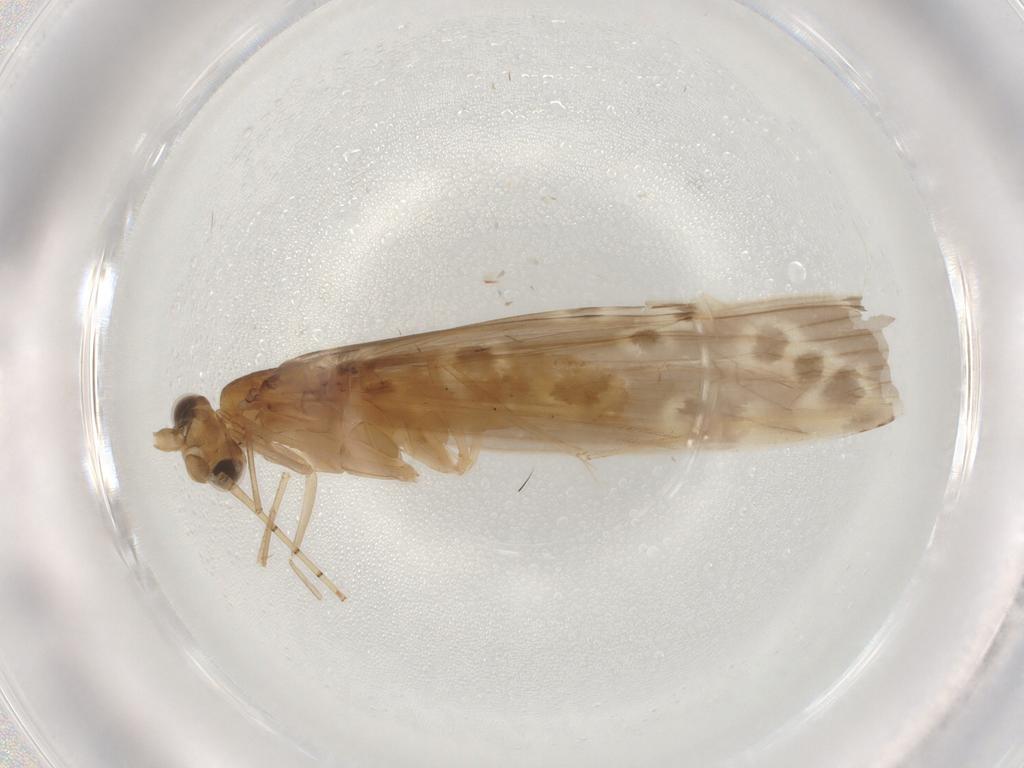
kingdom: Animalia
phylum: Arthropoda
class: Insecta
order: Trichoptera
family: Leptoceridae
